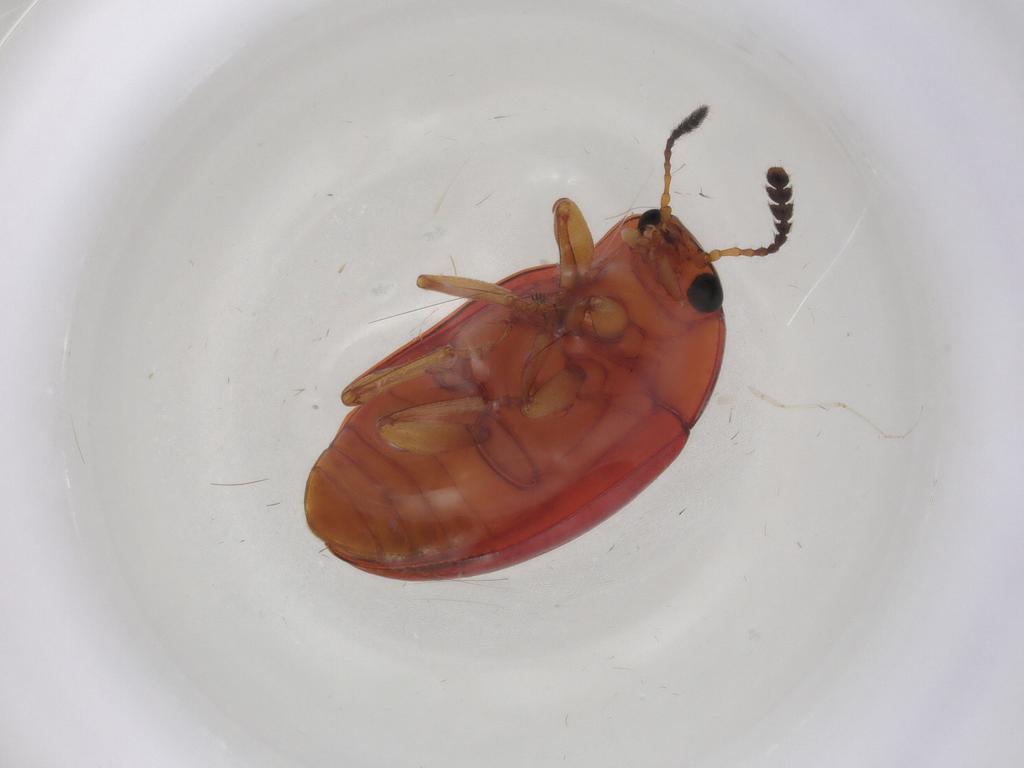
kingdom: Animalia
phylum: Arthropoda
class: Insecta
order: Coleoptera
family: Erotylidae
